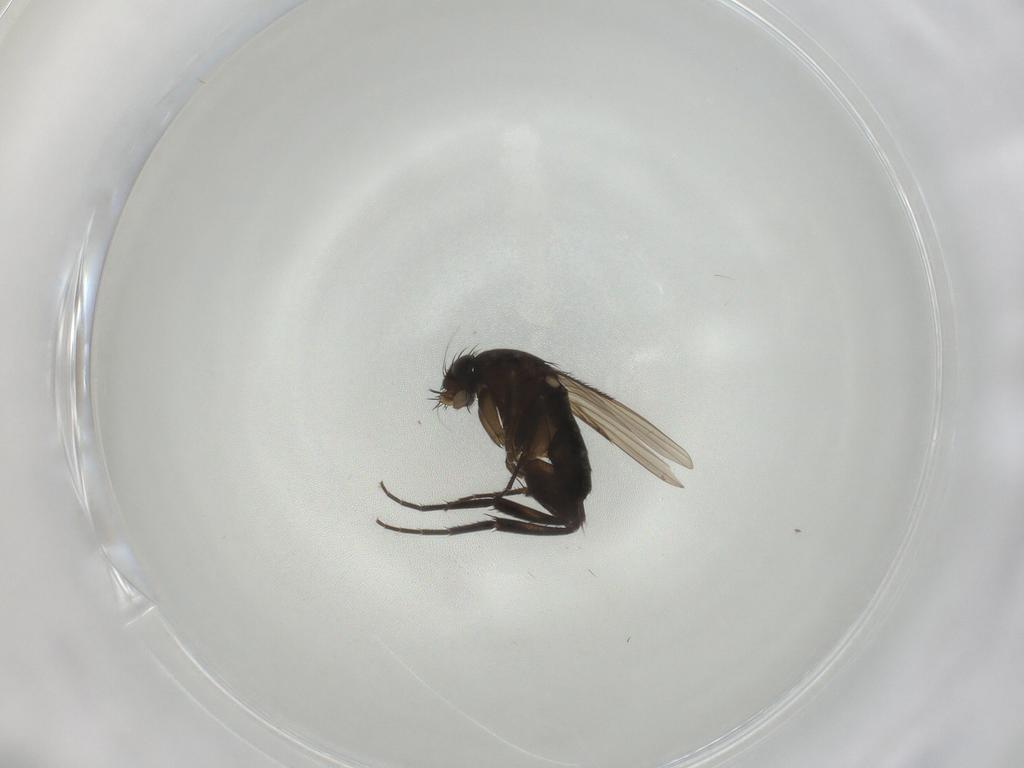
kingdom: Animalia
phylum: Arthropoda
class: Insecta
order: Diptera
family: Phoridae
